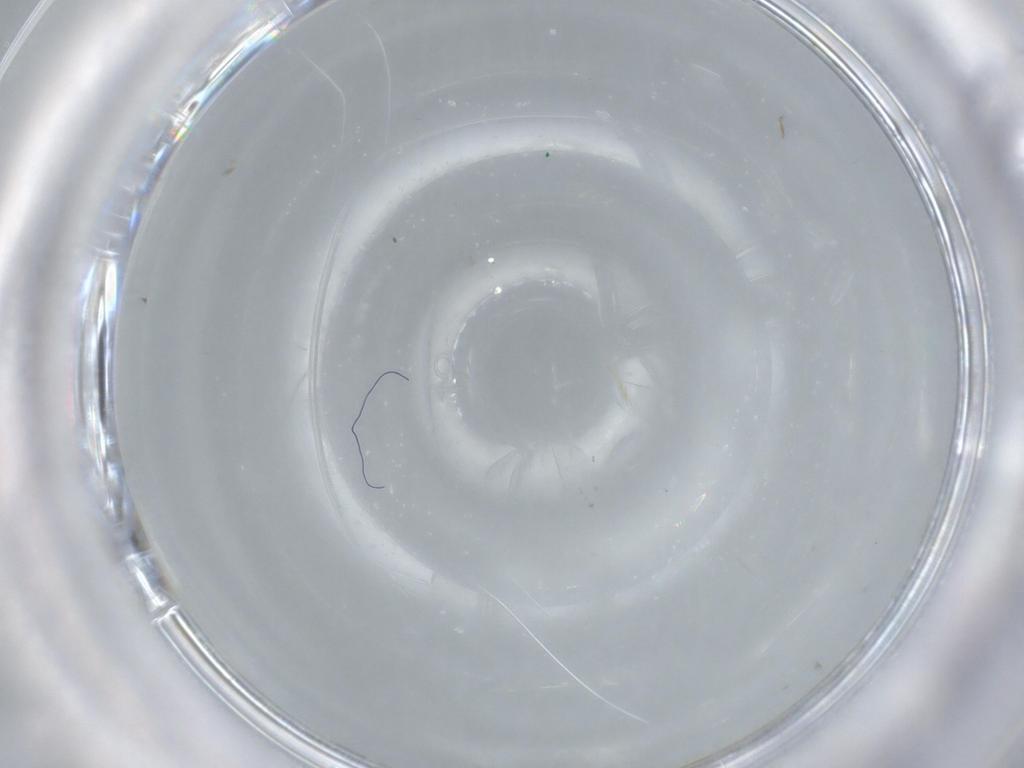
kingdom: Animalia
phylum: Arthropoda
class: Insecta
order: Diptera
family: Cecidomyiidae
